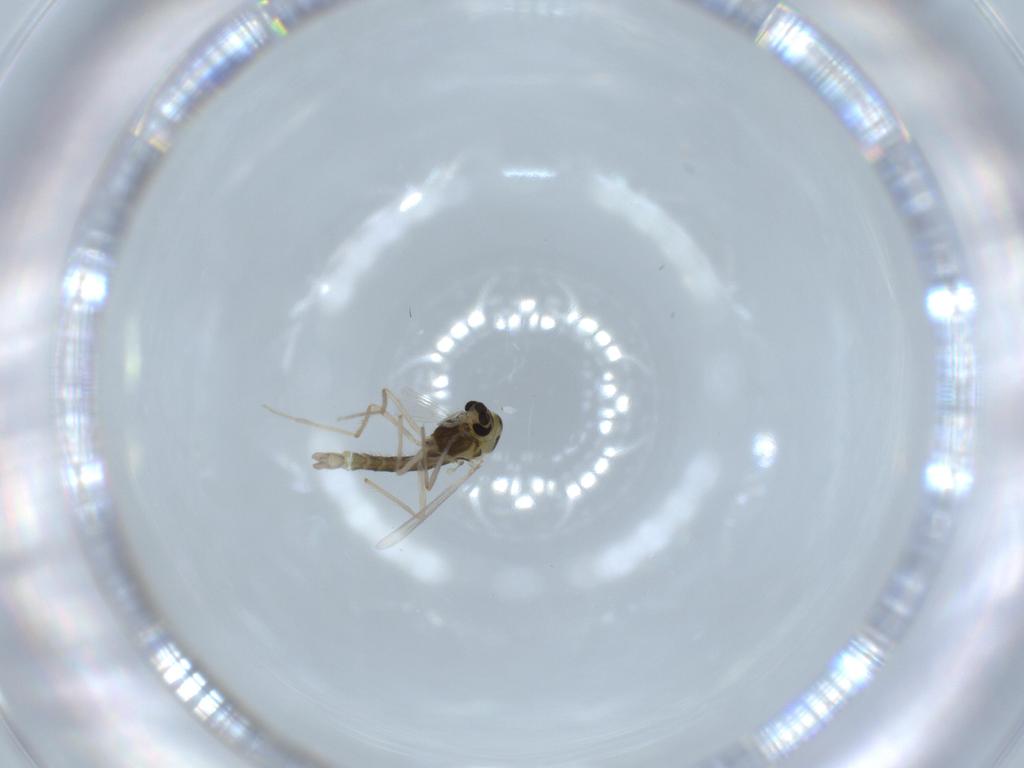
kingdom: Animalia
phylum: Arthropoda
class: Insecta
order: Diptera
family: Chironomidae
